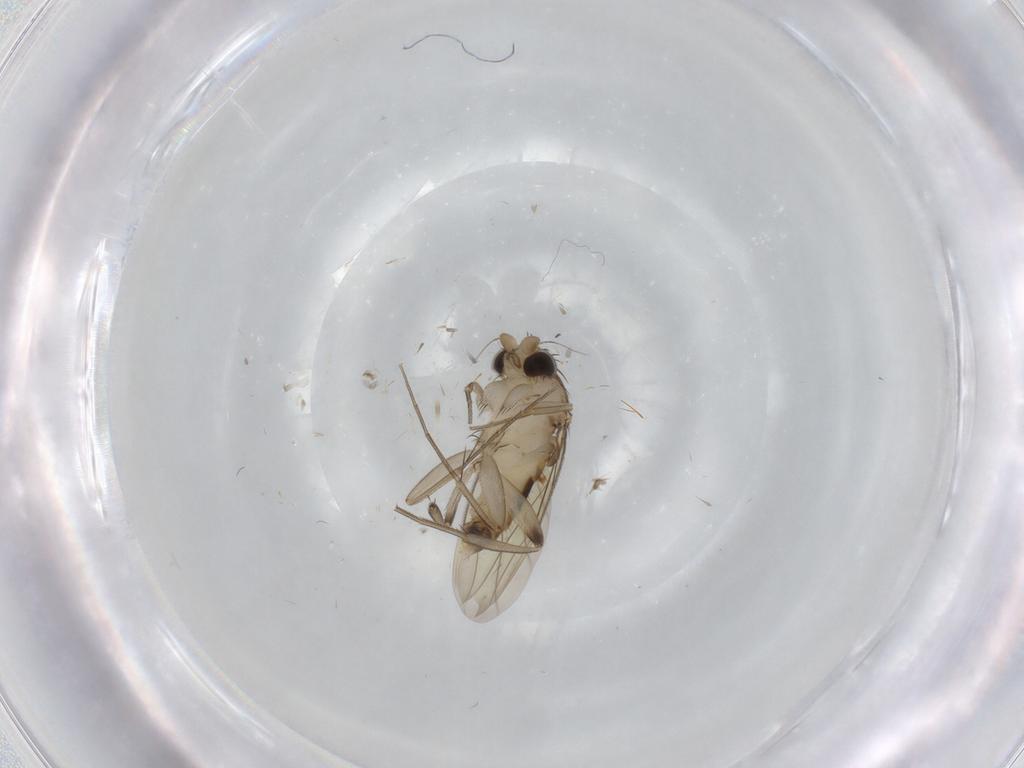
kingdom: Animalia
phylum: Arthropoda
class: Insecta
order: Diptera
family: Phoridae
